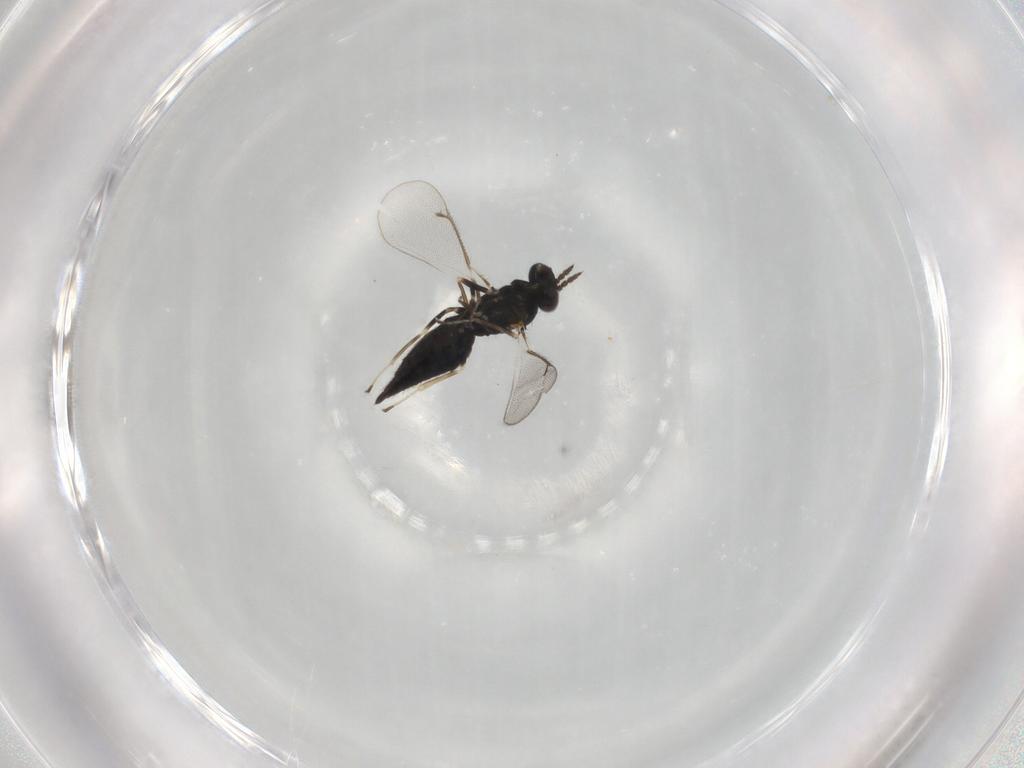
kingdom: Animalia
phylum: Arthropoda
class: Insecta
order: Hymenoptera
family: Eulophidae
